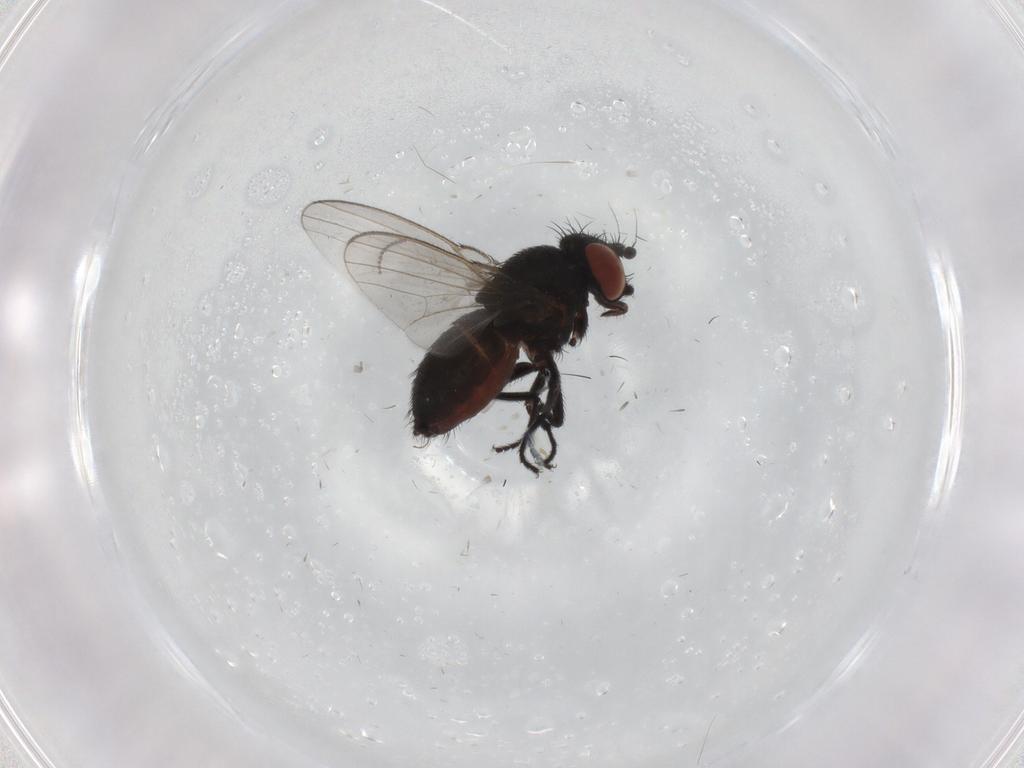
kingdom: Animalia
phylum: Arthropoda
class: Insecta
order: Diptera
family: Milichiidae
